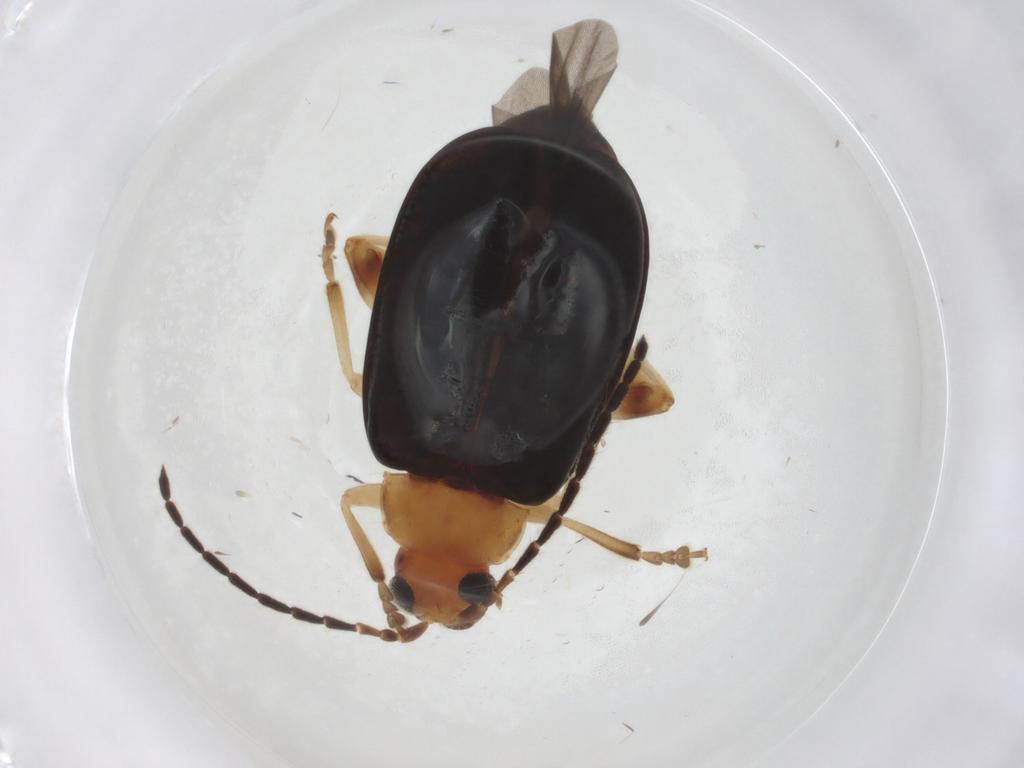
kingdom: Animalia
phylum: Arthropoda
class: Insecta
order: Coleoptera
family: Chrysomelidae
